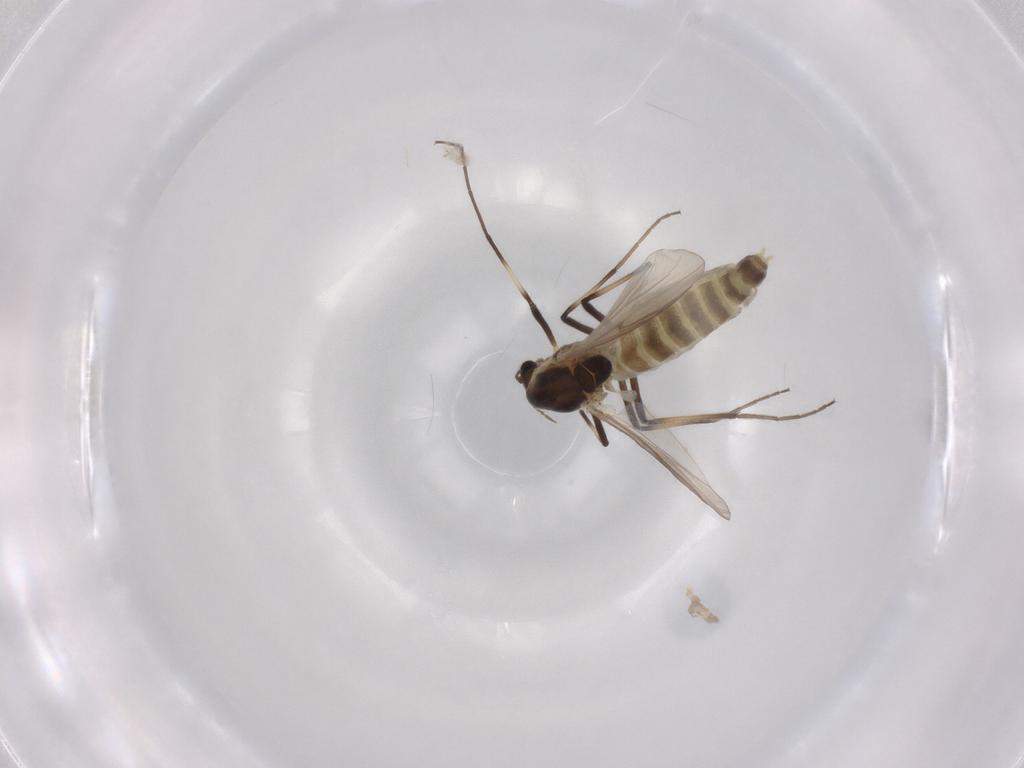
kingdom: Animalia
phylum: Arthropoda
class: Insecta
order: Diptera
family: Chironomidae
